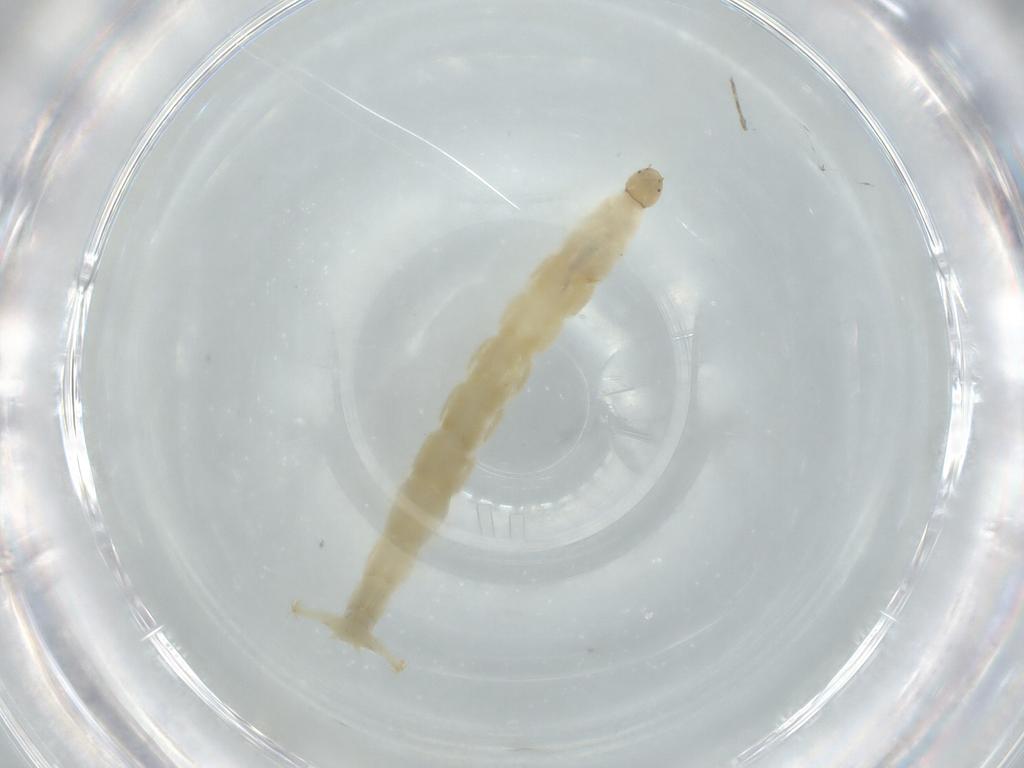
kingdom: Animalia
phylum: Arthropoda
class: Insecta
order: Diptera
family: Chironomidae
